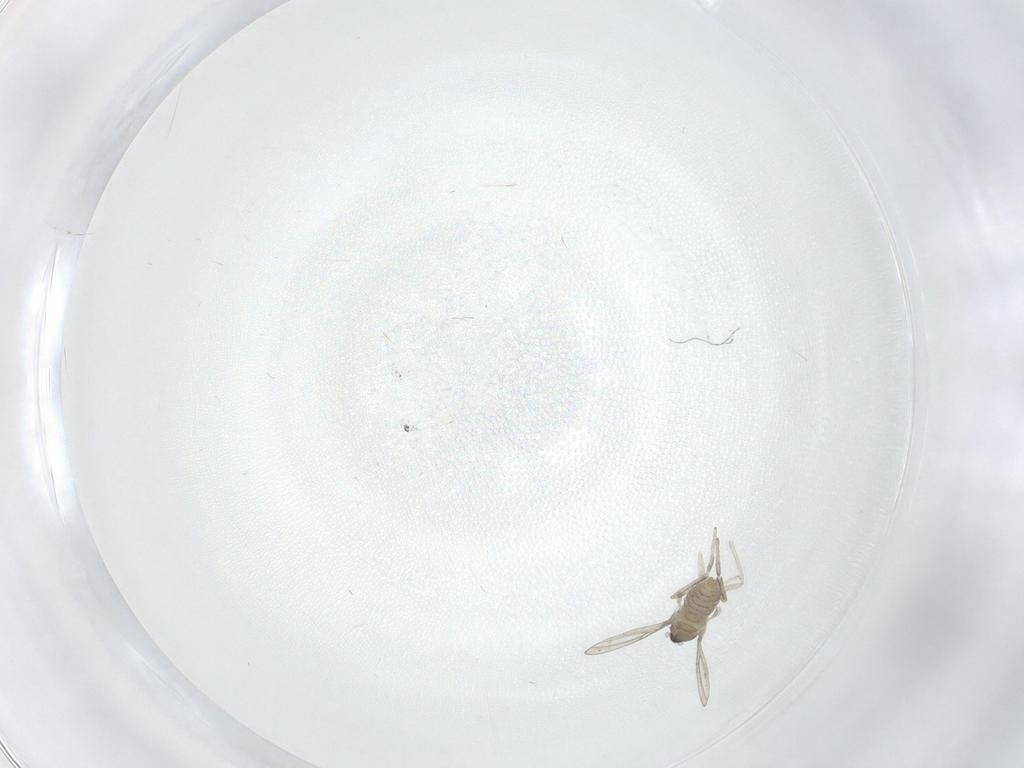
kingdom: Animalia
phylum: Arthropoda
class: Insecta
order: Diptera
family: Cecidomyiidae
